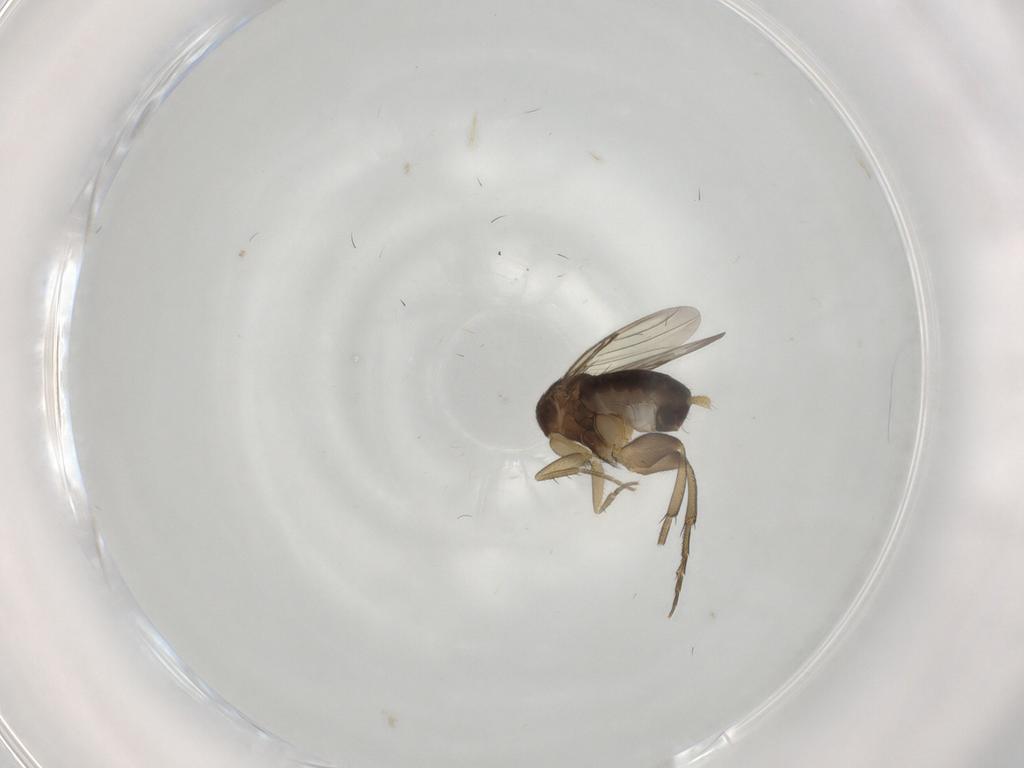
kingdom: Animalia
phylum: Arthropoda
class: Insecta
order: Diptera
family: Phoridae
